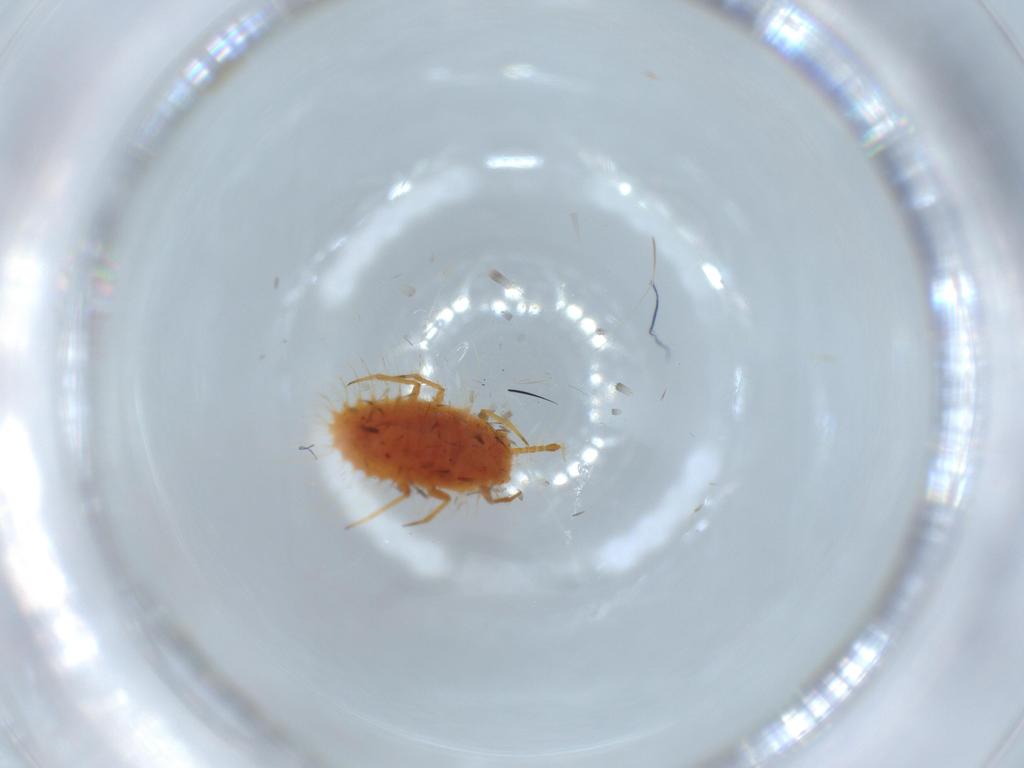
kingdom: Animalia
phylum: Arthropoda
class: Insecta
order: Hemiptera
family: Coccoidea_incertae_sedis
